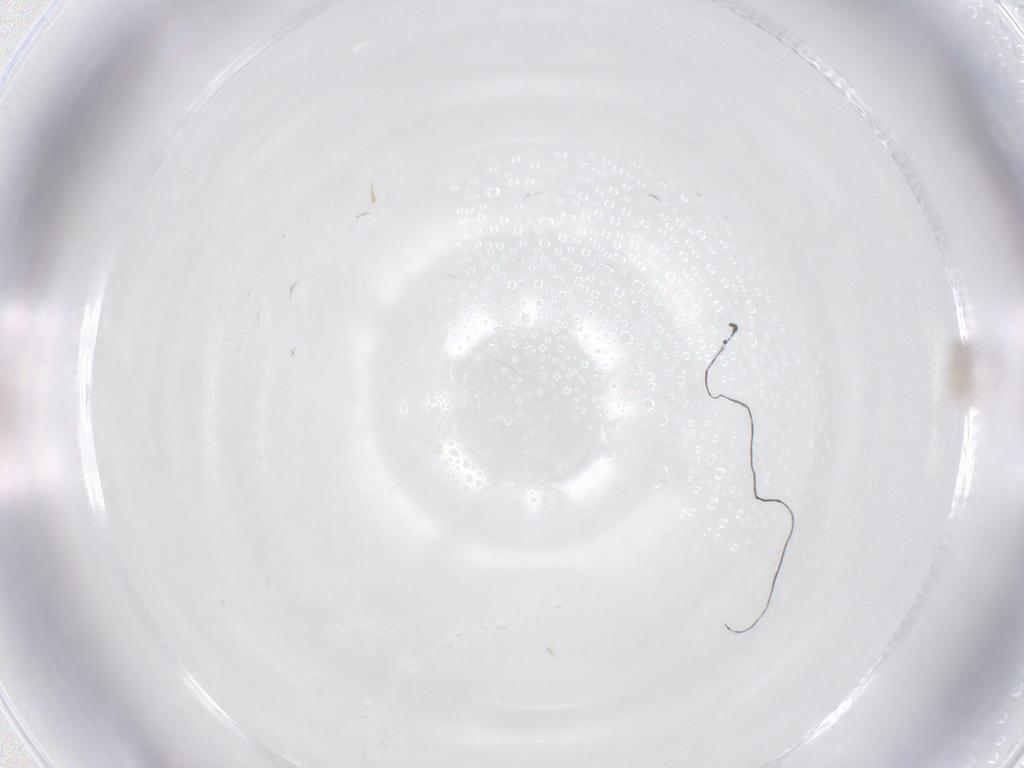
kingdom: Animalia
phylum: Arthropoda
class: Insecta
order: Hymenoptera
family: Mymaridae
